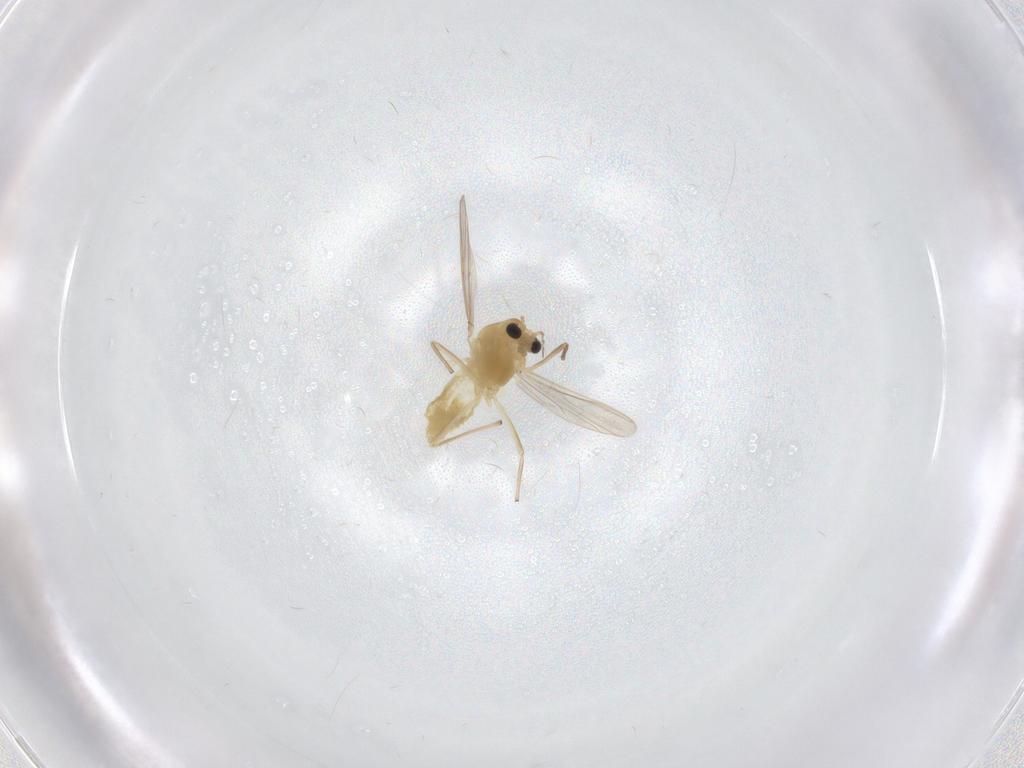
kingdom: Animalia
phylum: Arthropoda
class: Insecta
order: Diptera
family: Chironomidae
